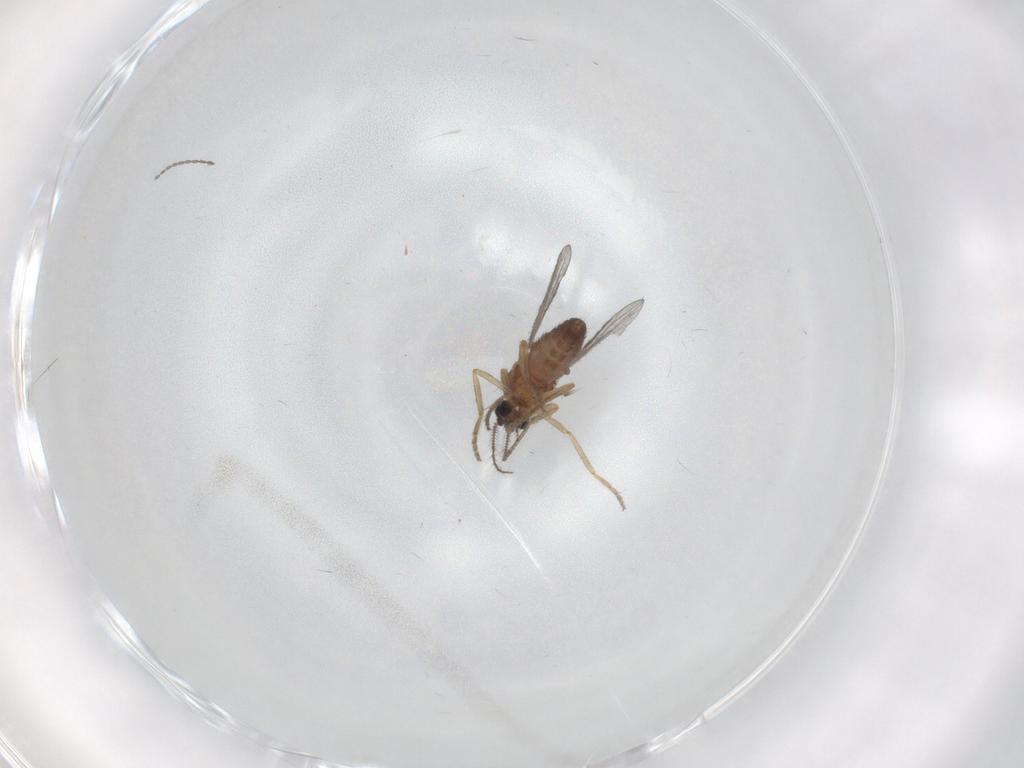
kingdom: Animalia
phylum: Arthropoda
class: Insecta
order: Diptera
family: Ceratopogonidae
